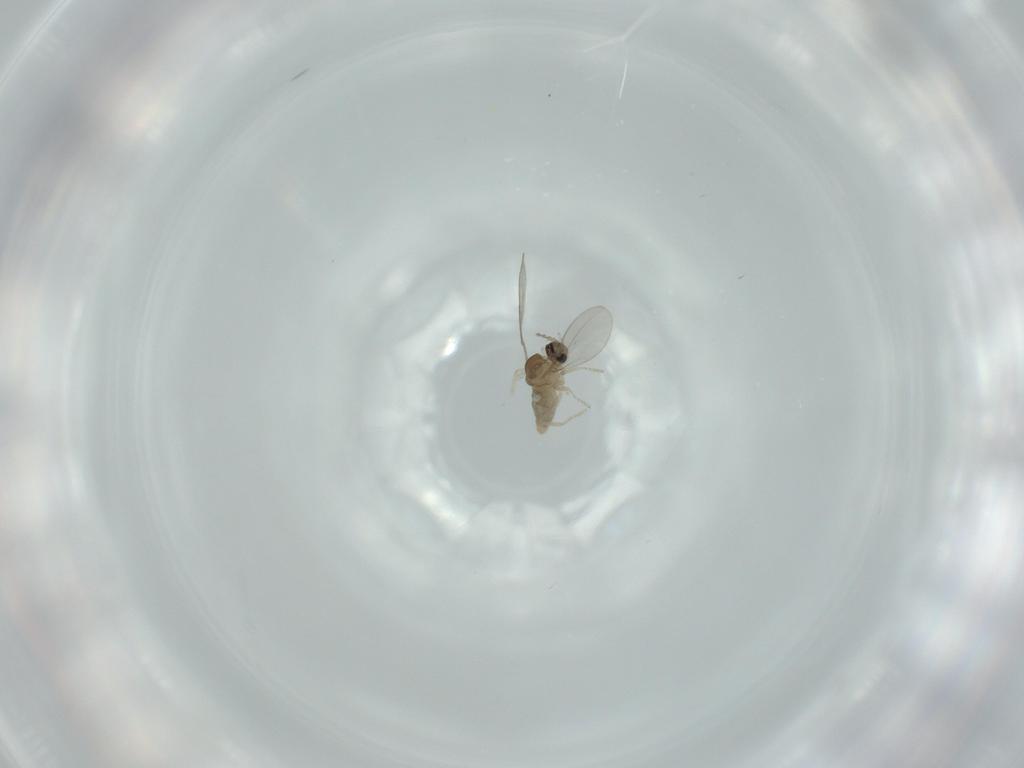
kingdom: Animalia
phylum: Arthropoda
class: Insecta
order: Diptera
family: Cecidomyiidae
